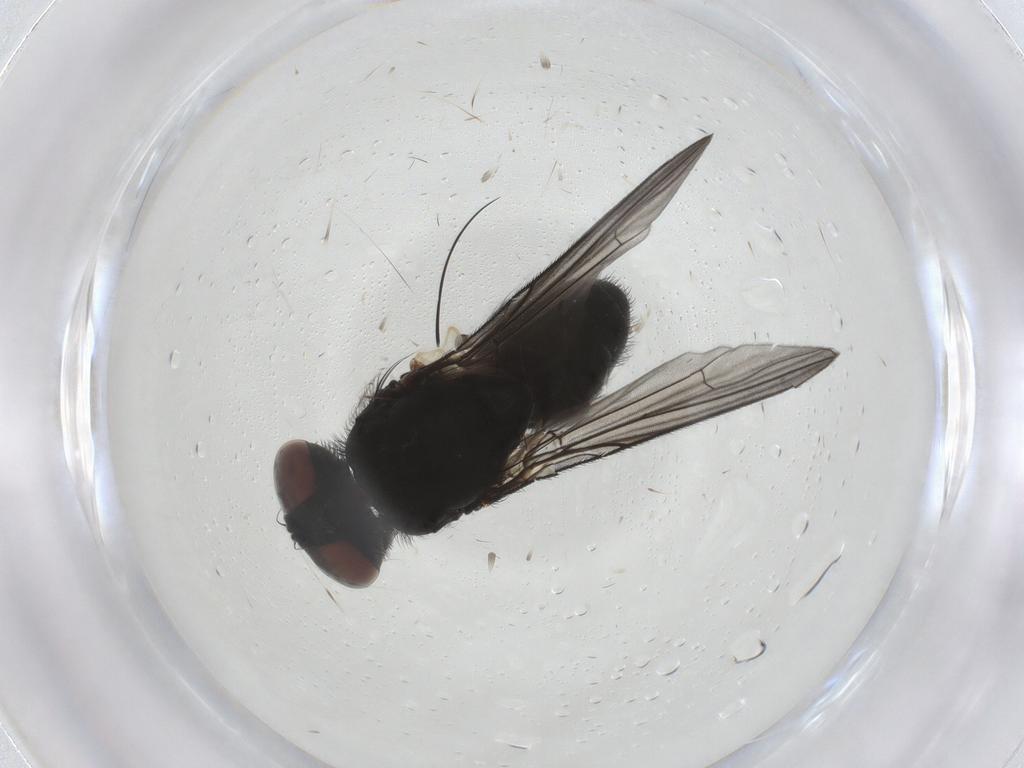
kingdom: Animalia
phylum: Arthropoda
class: Insecta
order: Diptera
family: Muscidae
